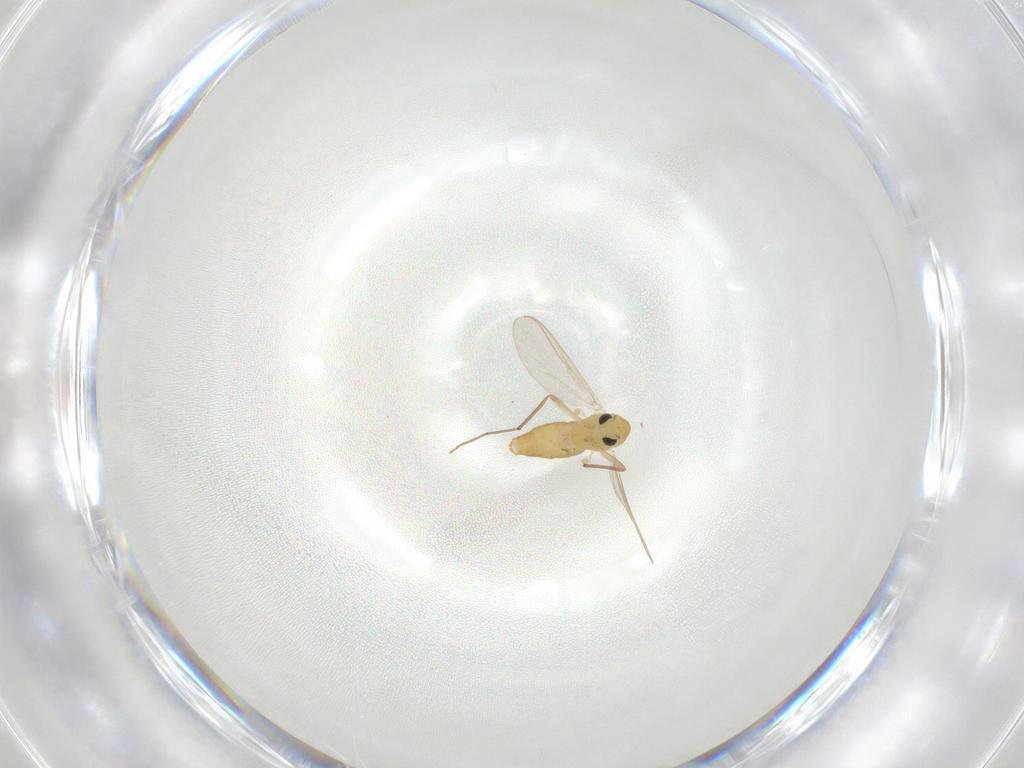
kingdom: Animalia
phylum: Arthropoda
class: Insecta
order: Diptera
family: Chironomidae
